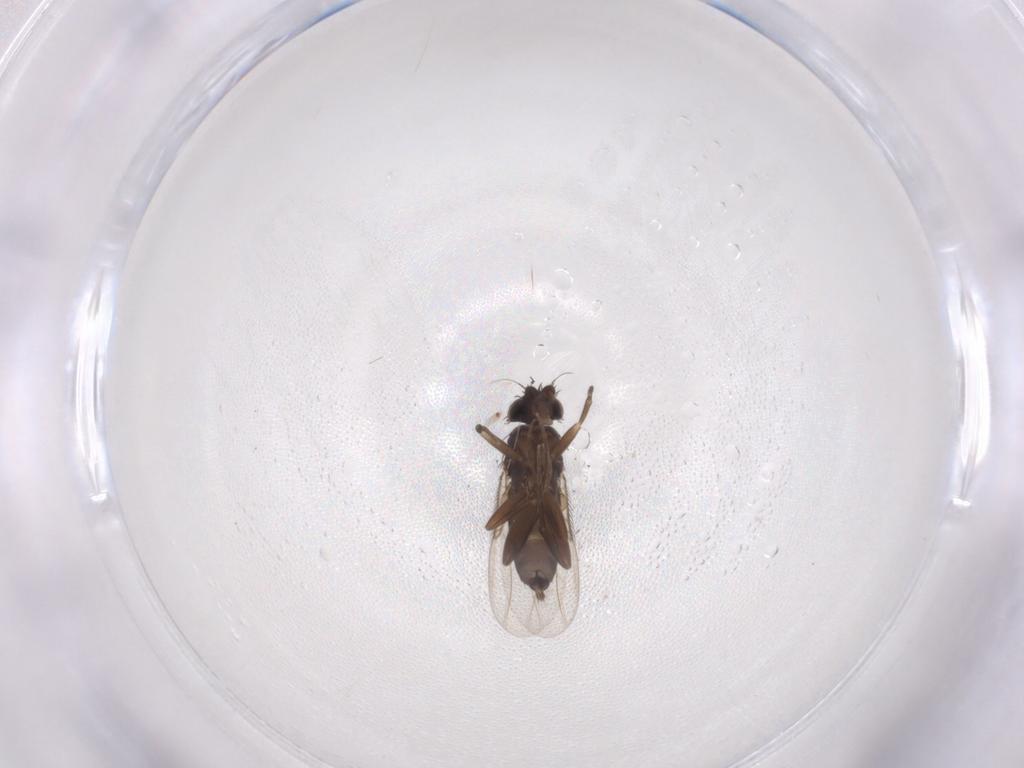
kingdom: Animalia
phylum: Arthropoda
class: Insecta
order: Diptera
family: Phoridae
